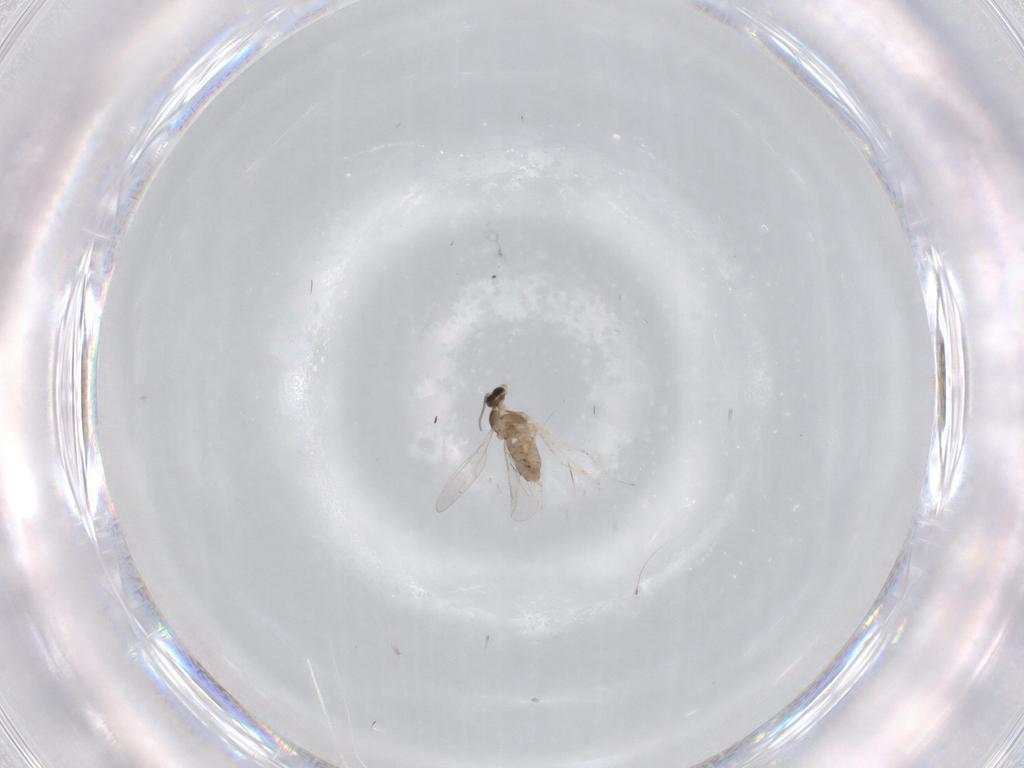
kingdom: Animalia
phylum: Arthropoda
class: Insecta
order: Diptera
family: Cecidomyiidae
